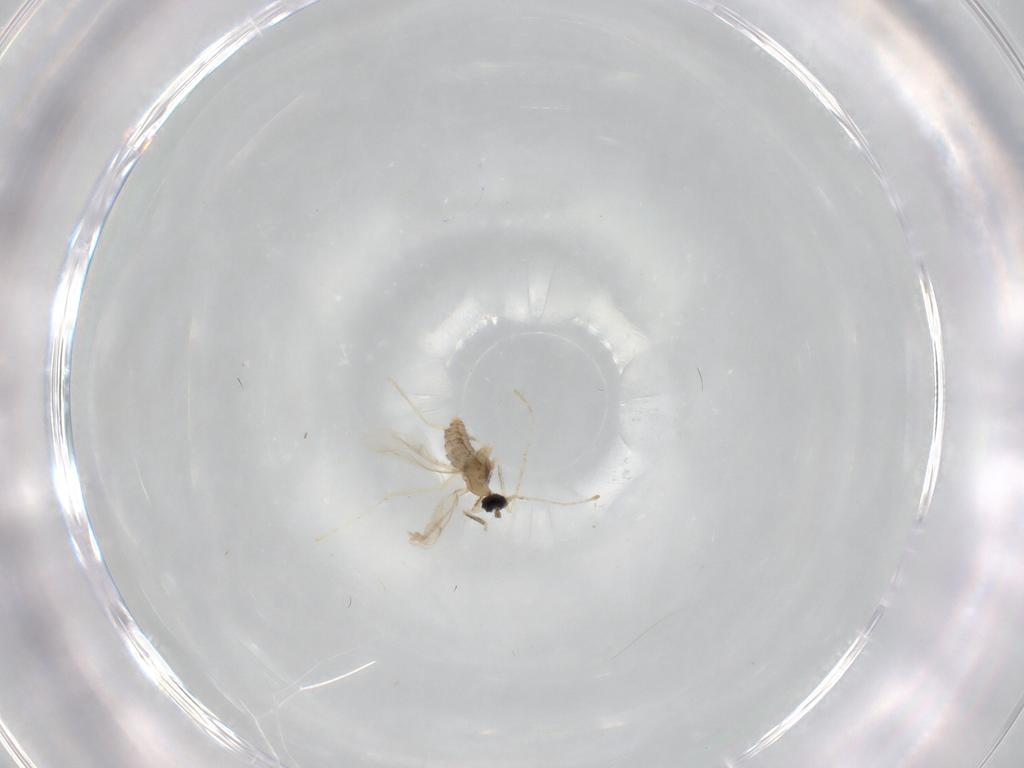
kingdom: Animalia
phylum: Arthropoda
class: Insecta
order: Diptera
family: Cecidomyiidae
